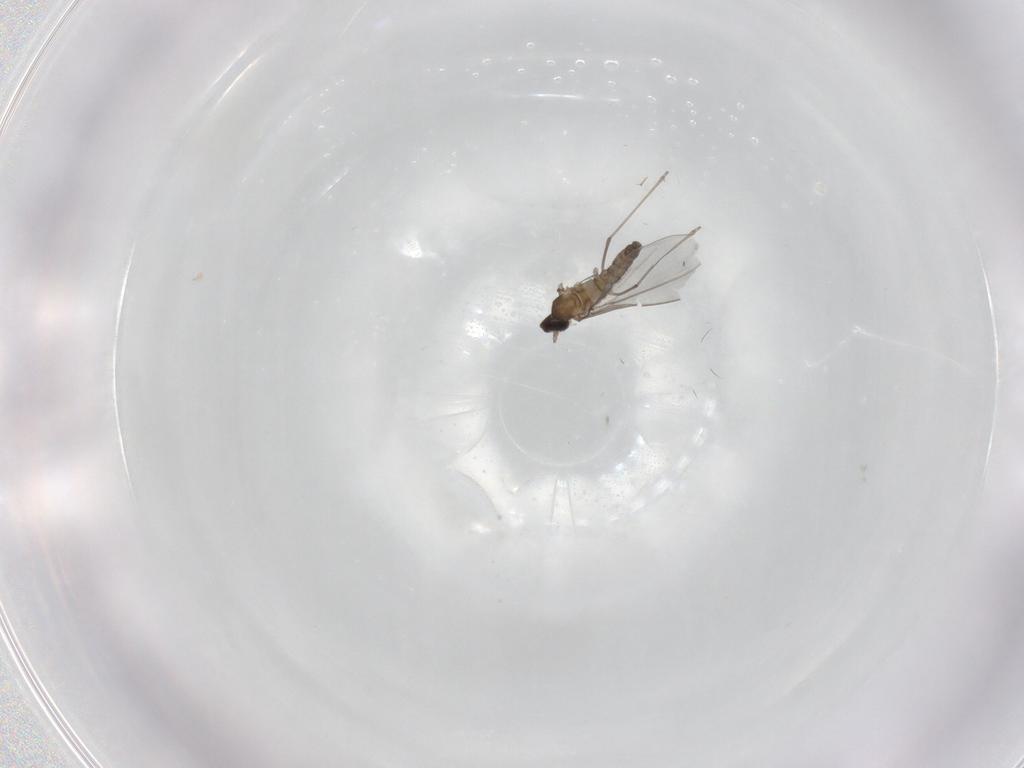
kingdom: Animalia
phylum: Arthropoda
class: Insecta
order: Diptera
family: Cecidomyiidae
